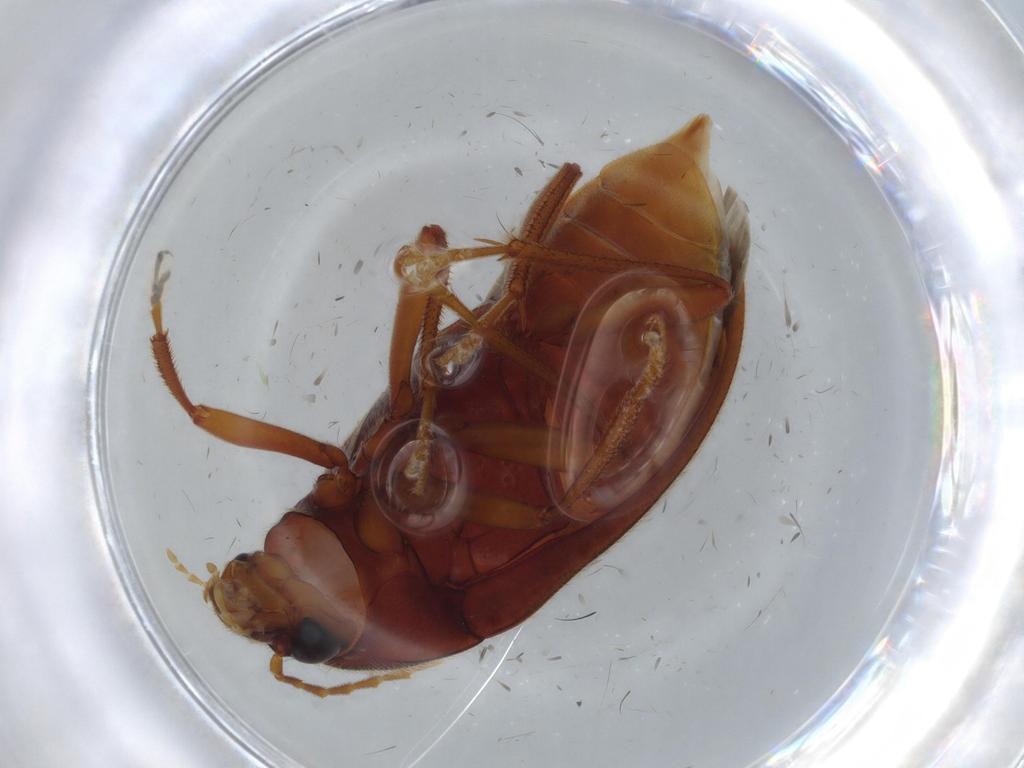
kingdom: Animalia
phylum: Arthropoda
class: Insecta
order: Coleoptera
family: Ptilodactylidae
